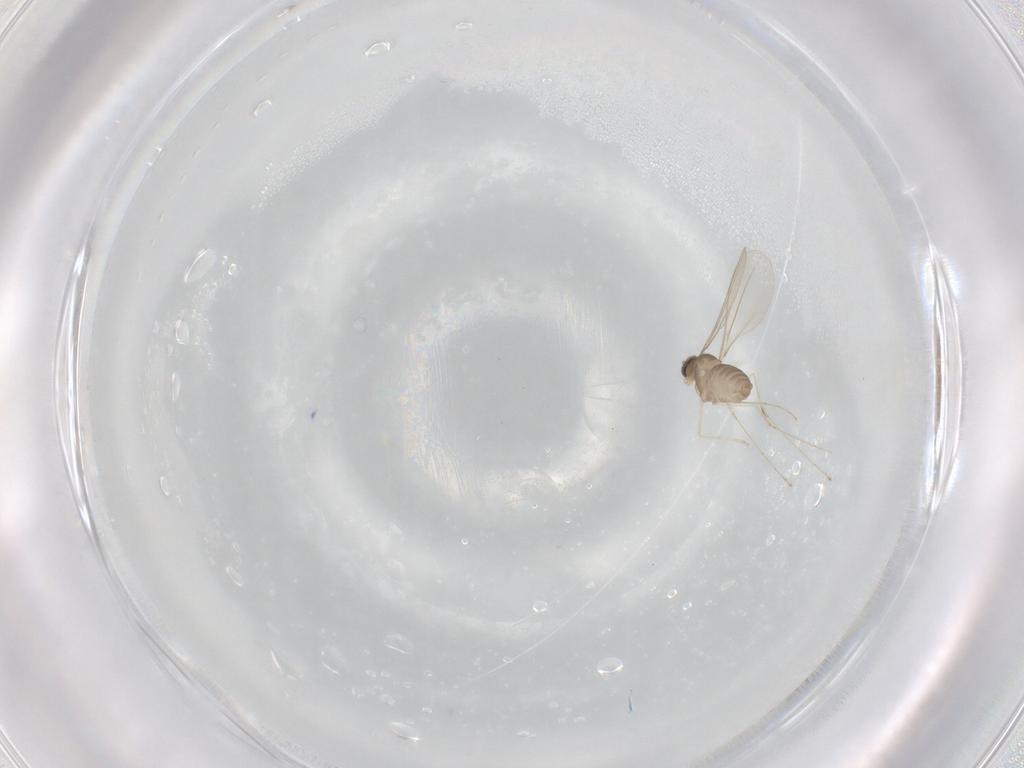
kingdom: Animalia
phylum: Arthropoda
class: Insecta
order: Diptera
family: Cecidomyiidae
